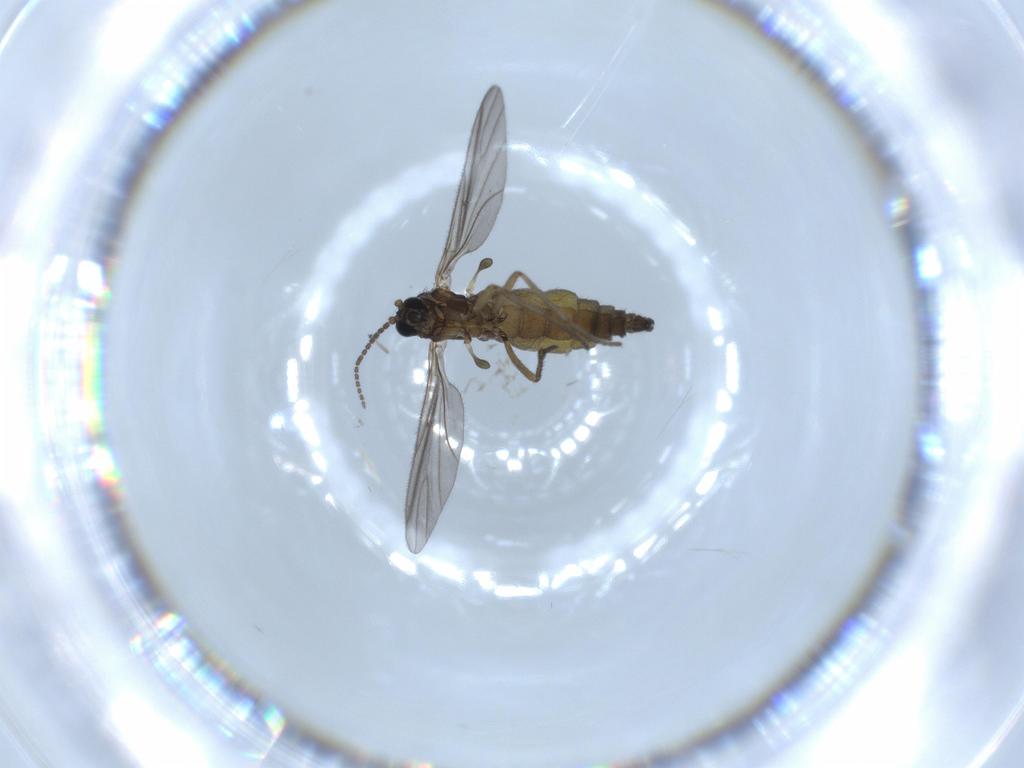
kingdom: Animalia
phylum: Arthropoda
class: Insecta
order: Diptera
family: Sciaridae
